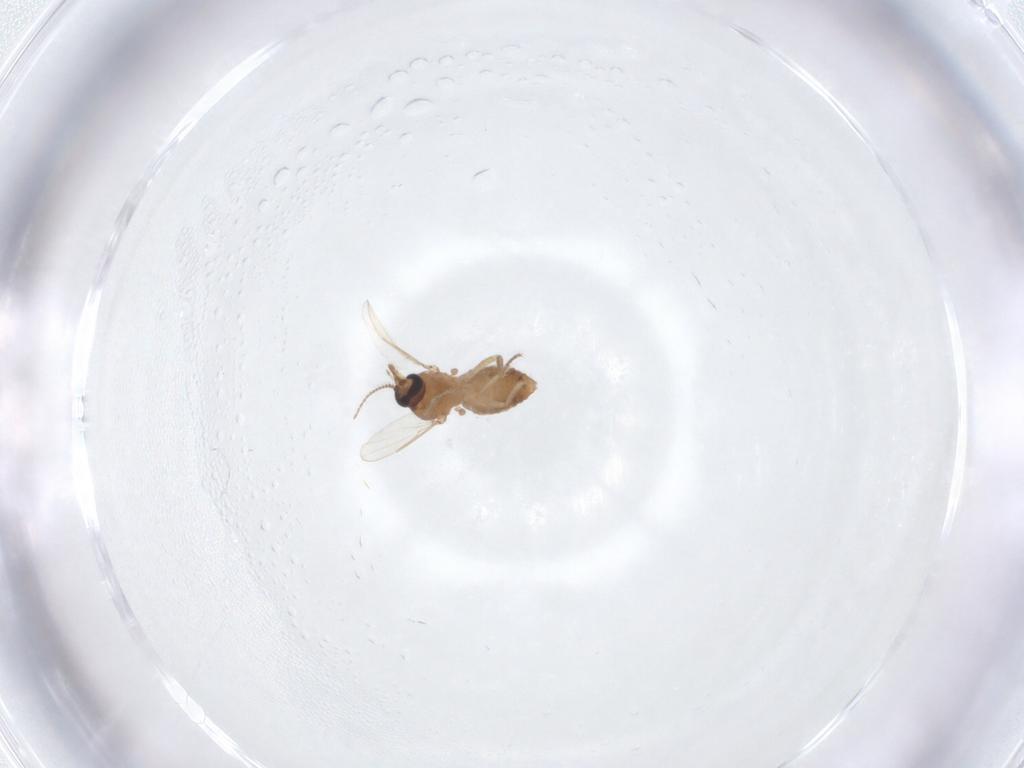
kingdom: Animalia
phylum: Arthropoda
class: Insecta
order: Diptera
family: Ceratopogonidae
